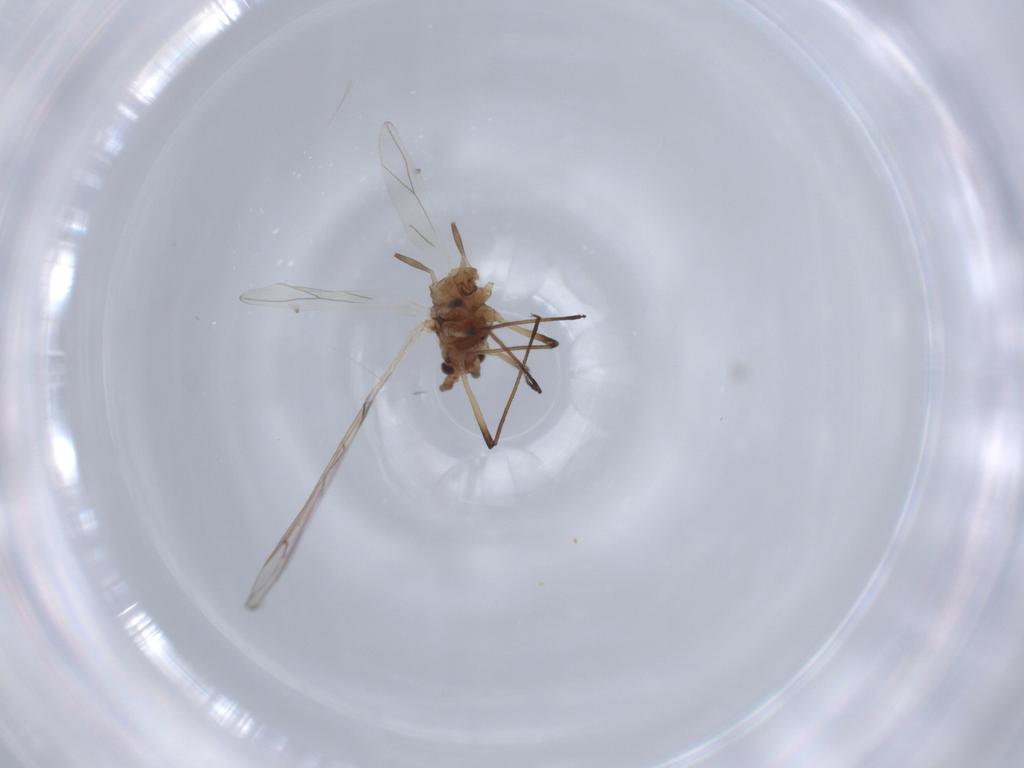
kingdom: Animalia
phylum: Arthropoda
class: Insecta
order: Hemiptera
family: Aphididae
